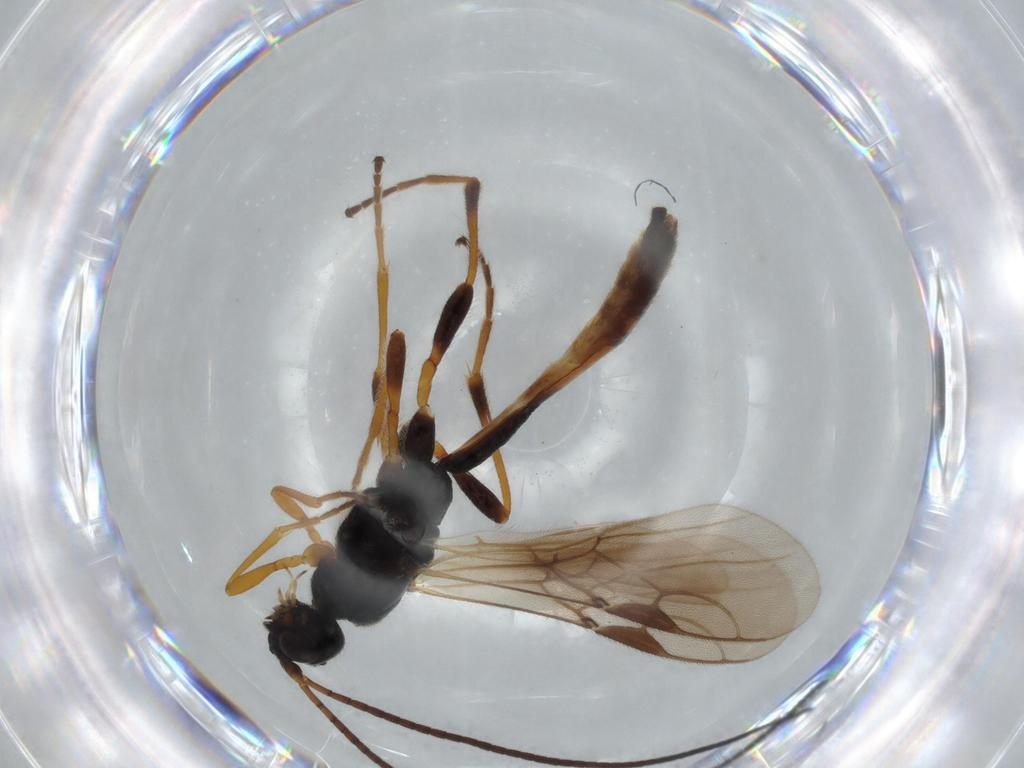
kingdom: Animalia
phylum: Arthropoda
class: Insecta
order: Hymenoptera
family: Braconidae
